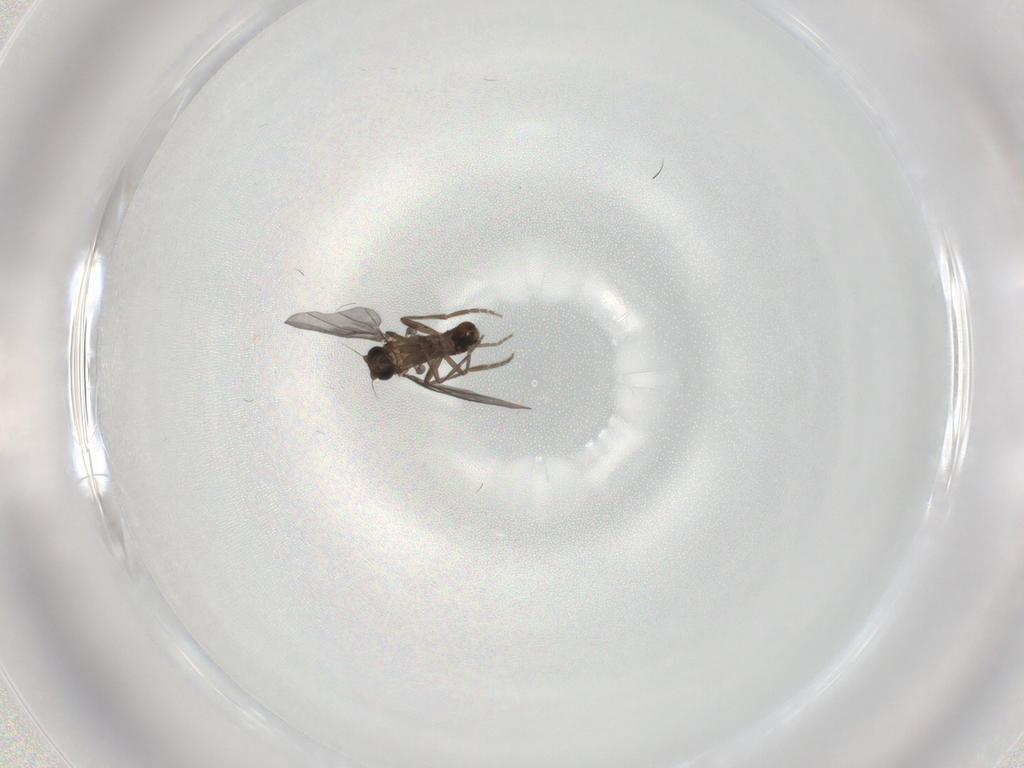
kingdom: Animalia
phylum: Arthropoda
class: Insecta
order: Diptera
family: Phoridae
